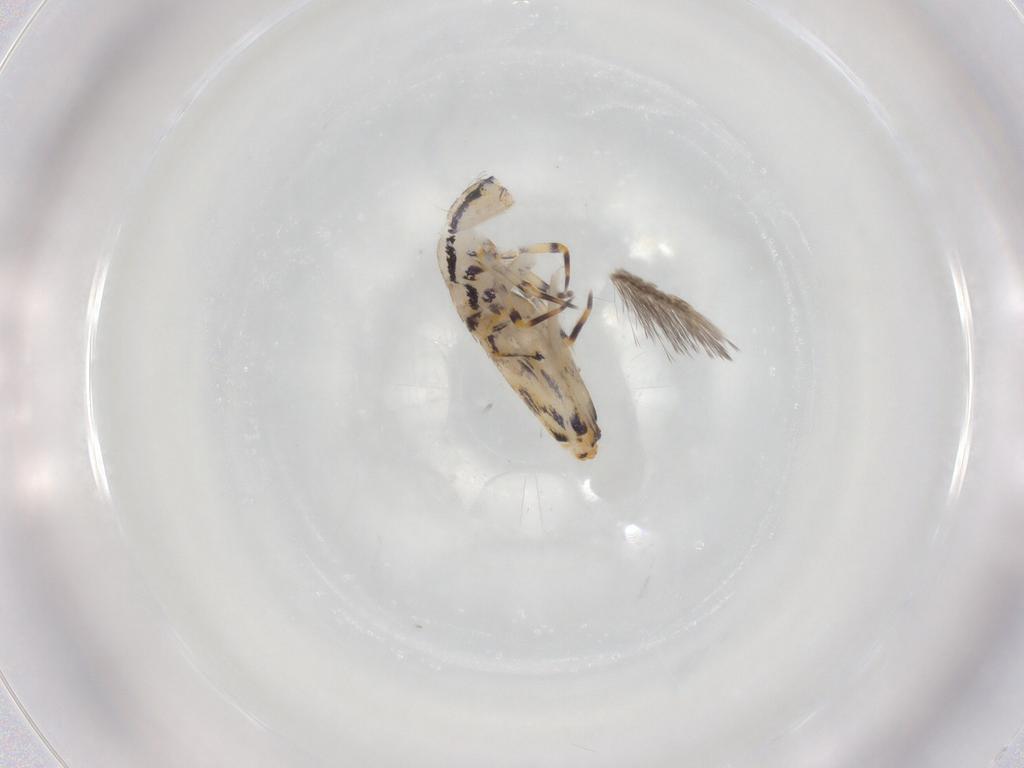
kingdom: Animalia
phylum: Arthropoda
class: Collembola
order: Entomobryomorpha
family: Entomobryidae
